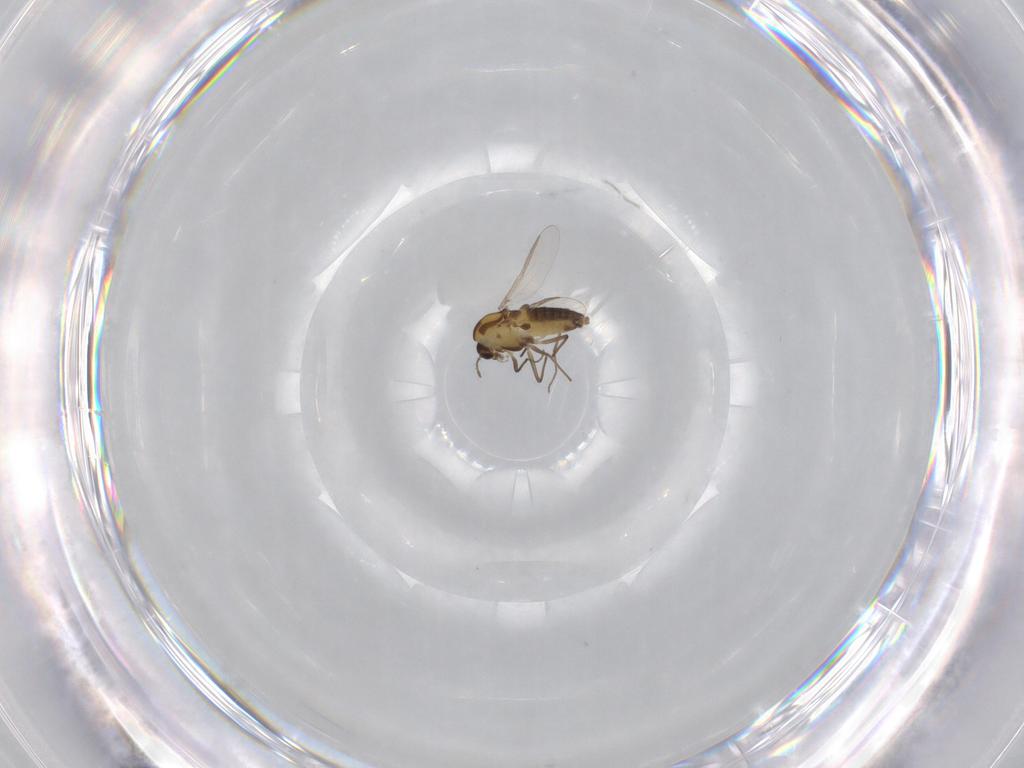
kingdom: Animalia
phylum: Arthropoda
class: Insecta
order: Diptera
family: Chironomidae
